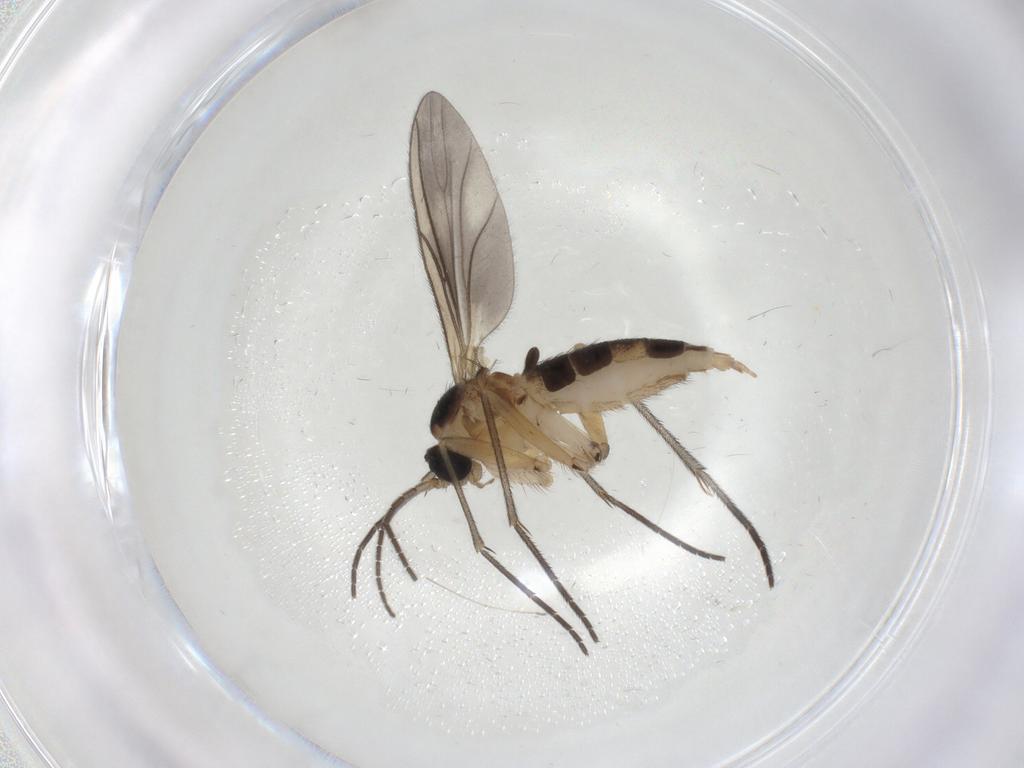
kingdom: Animalia
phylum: Arthropoda
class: Insecta
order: Diptera
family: Sciaridae
